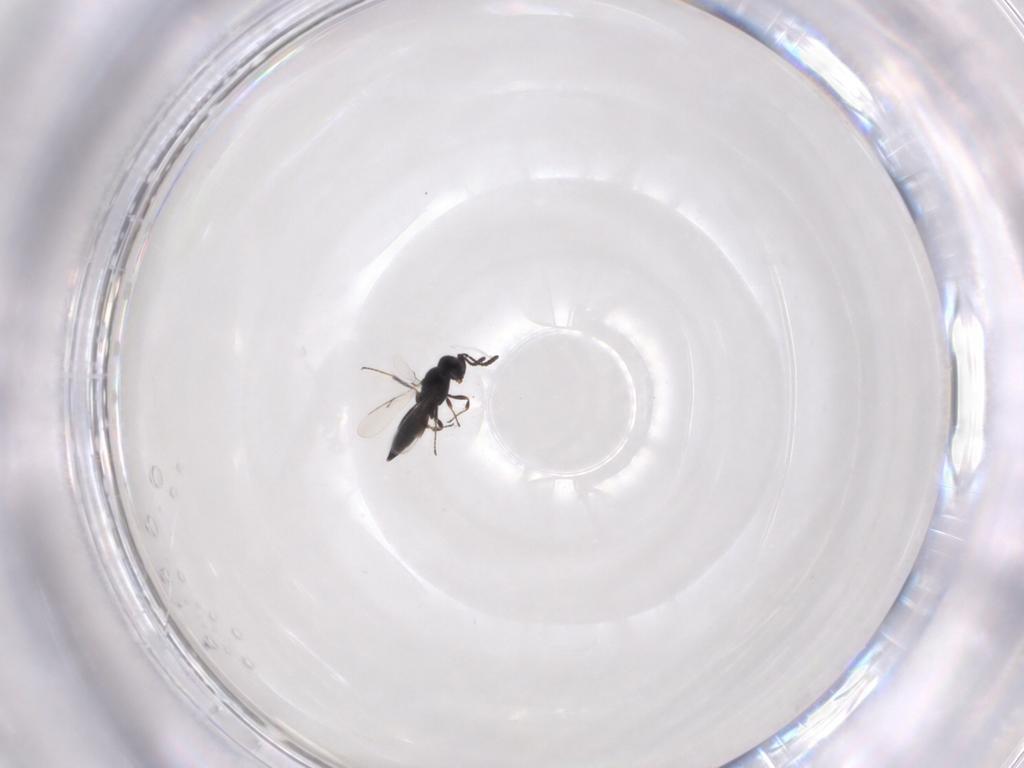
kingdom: Animalia
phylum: Arthropoda
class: Insecta
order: Hymenoptera
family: Scelionidae
